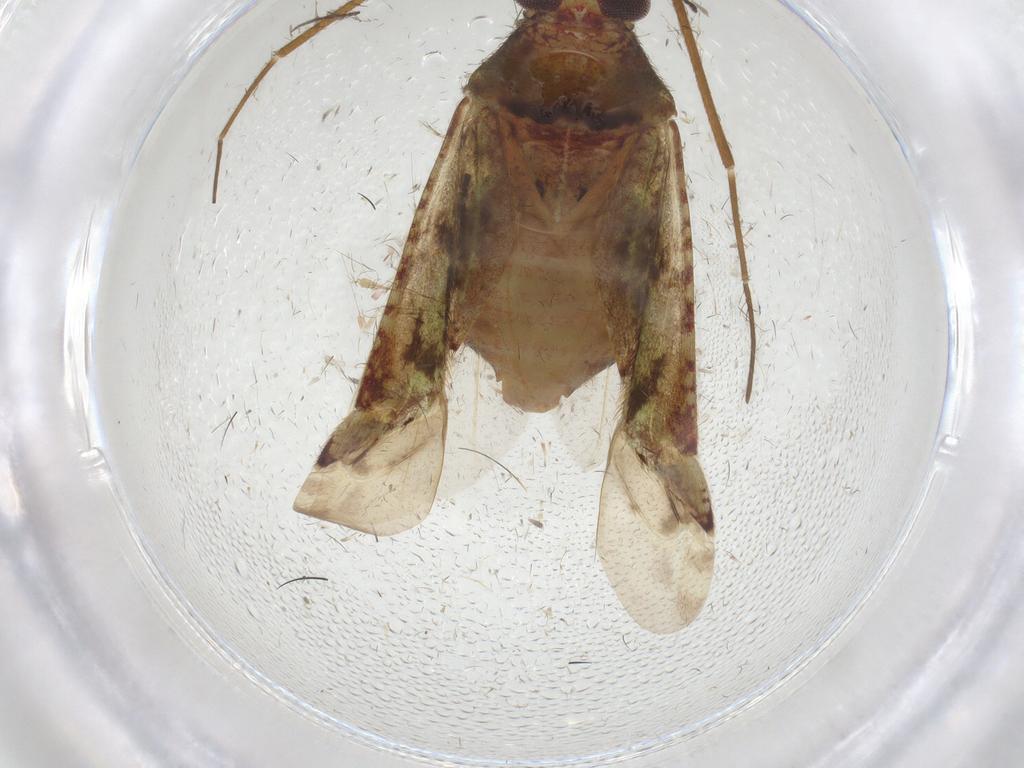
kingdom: Animalia
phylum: Arthropoda
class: Insecta
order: Hemiptera
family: Miridae
